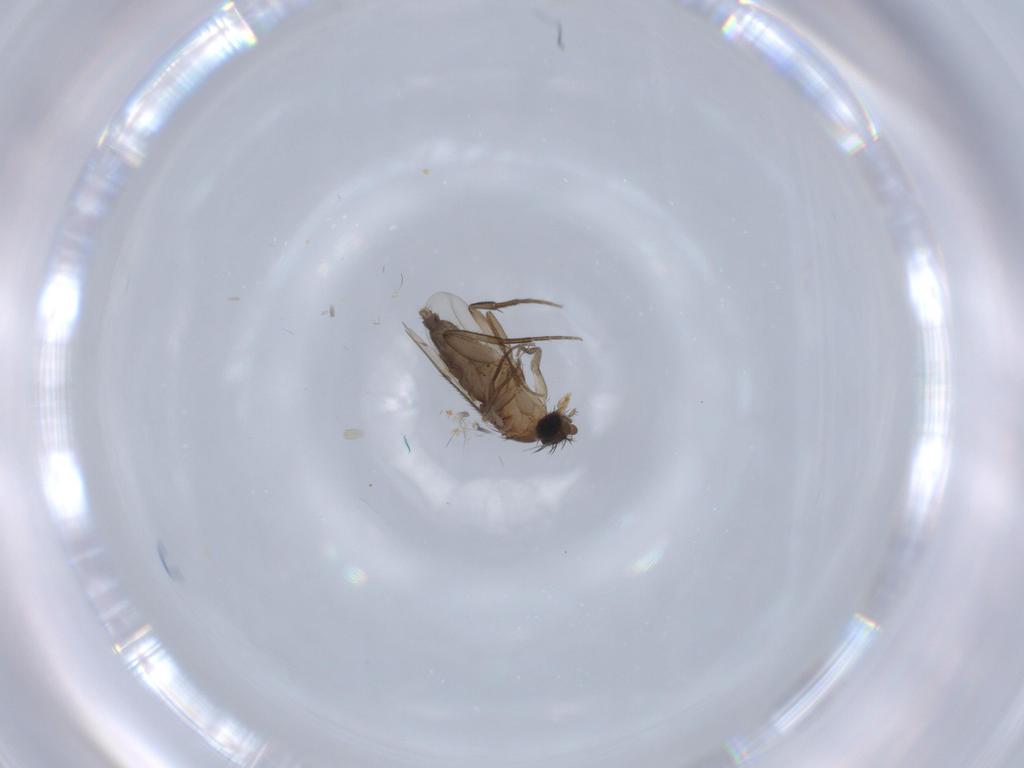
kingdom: Animalia
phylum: Arthropoda
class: Insecta
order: Diptera
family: Phoridae
